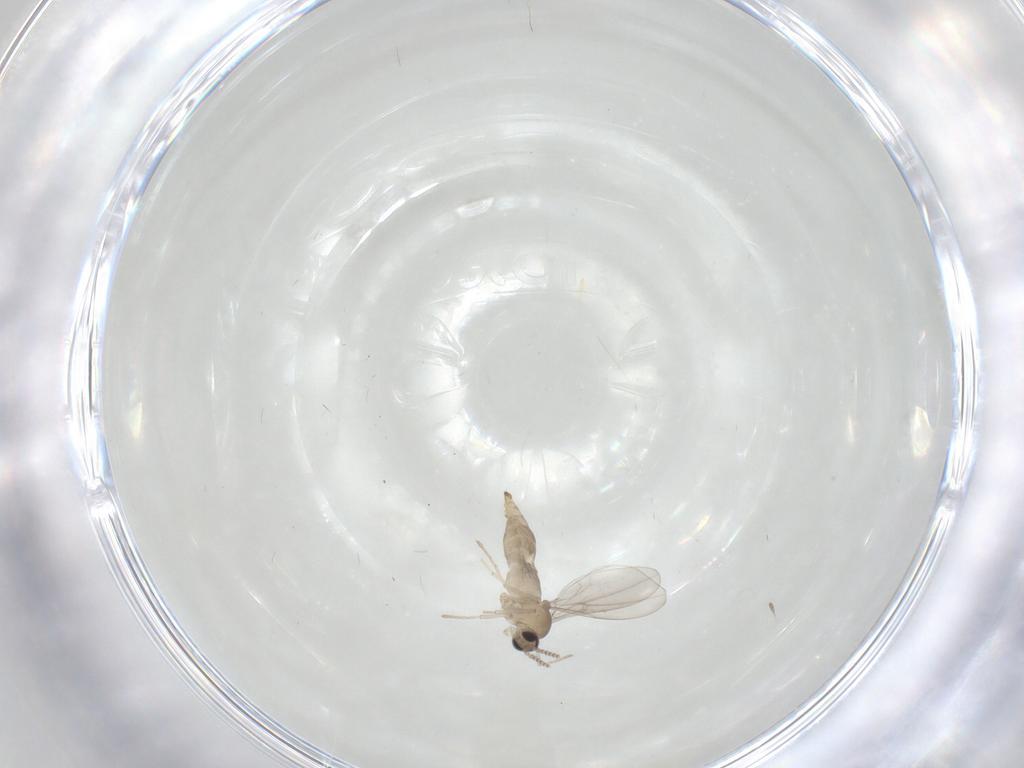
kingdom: Animalia
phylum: Arthropoda
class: Insecta
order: Diptera
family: Cecidomyiidae
